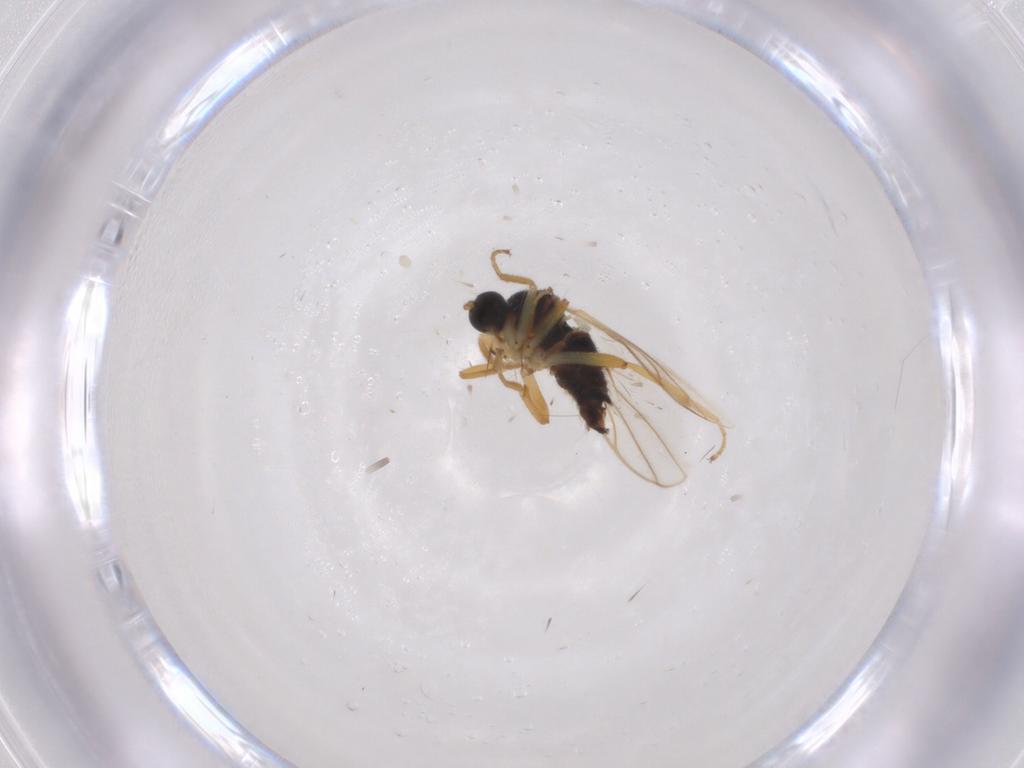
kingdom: Animalia
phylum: Arthropoda
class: Insecta
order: Diptera
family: Hybotidae
